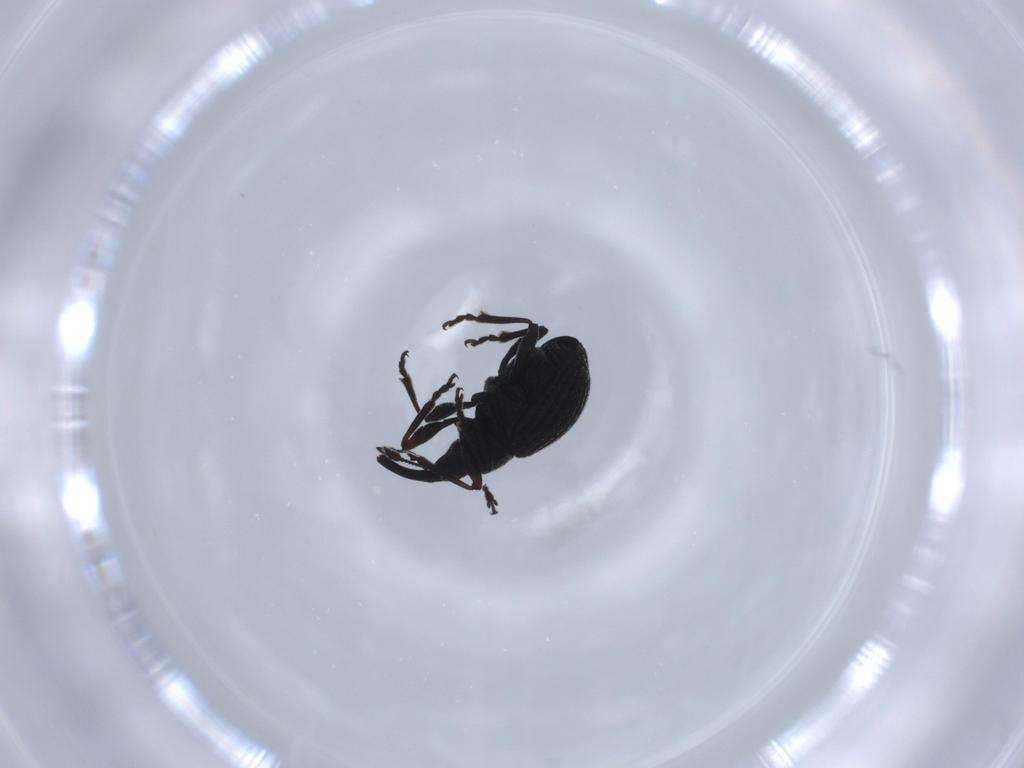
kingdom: Animalia
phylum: Arthropoda
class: Insecta
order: Coleoptera
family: Brentidae
